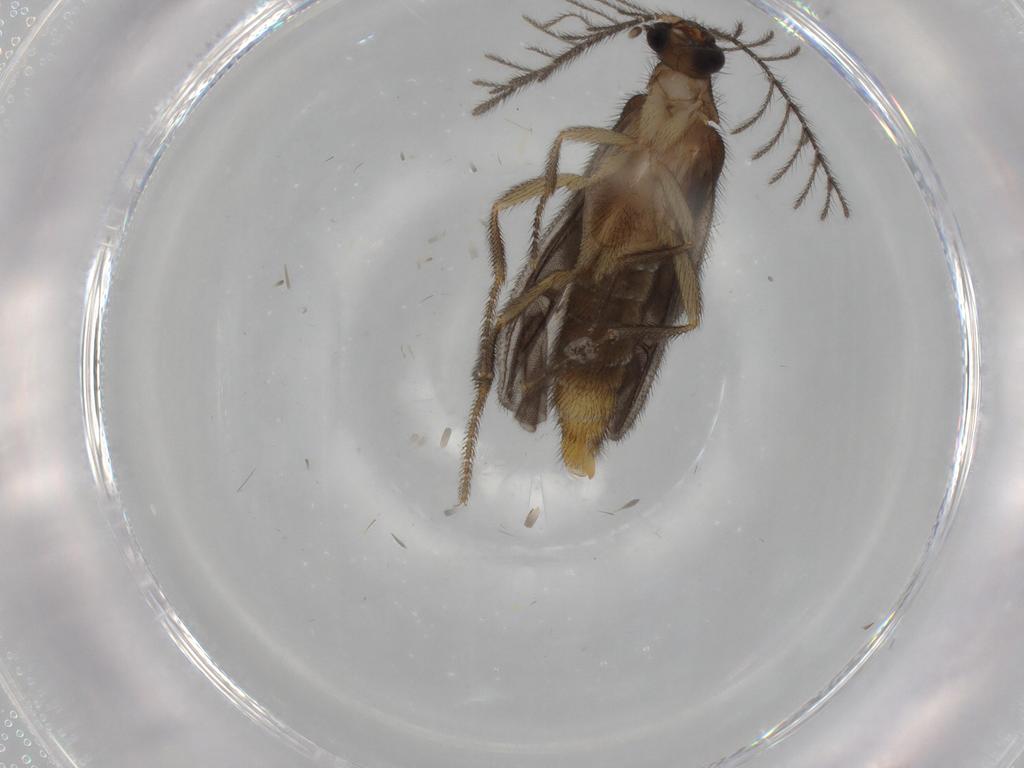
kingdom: Animalia
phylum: Arthropoda
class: Insecta
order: Coleoptera
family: Phengodidae
